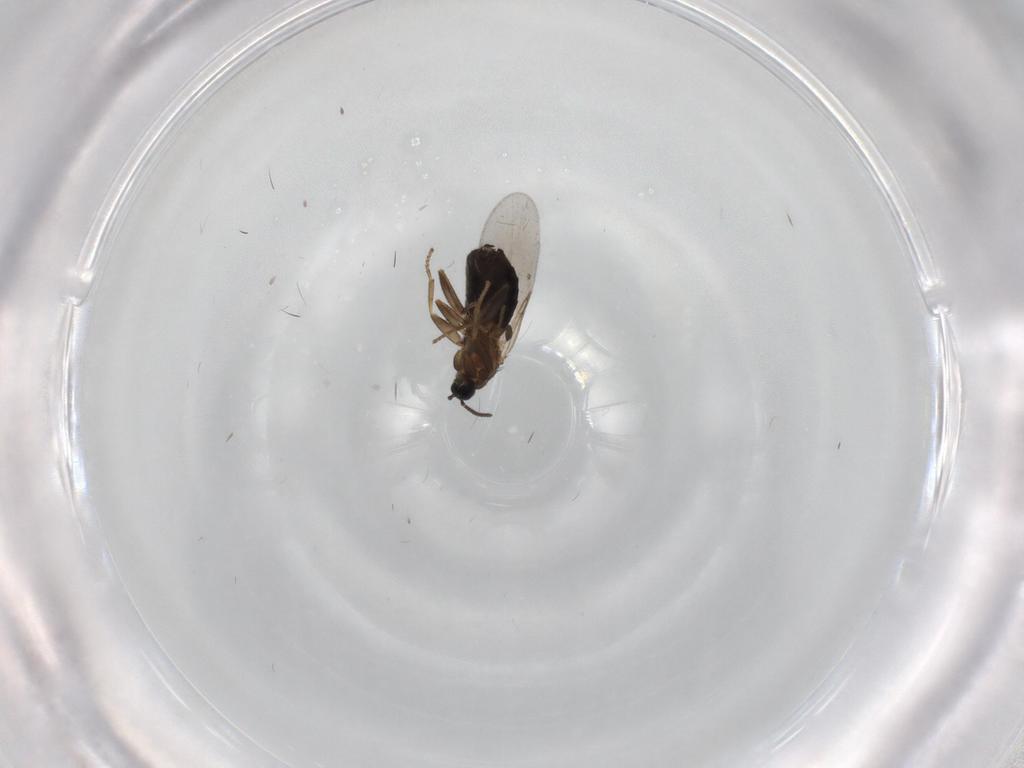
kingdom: Animalia
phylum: Arthropoda
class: Insecta
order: Diptera
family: Scatopsidae
